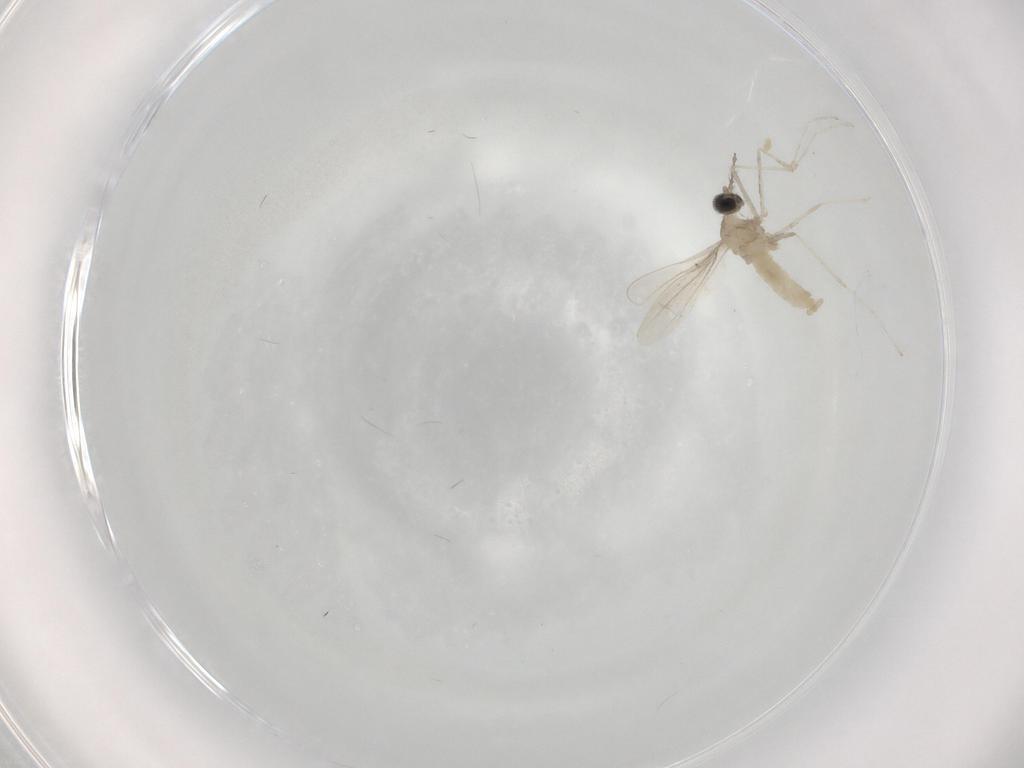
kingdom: Animalia
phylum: Arthropoda
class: Insecta
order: Diptera
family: Cecidomyiidae
